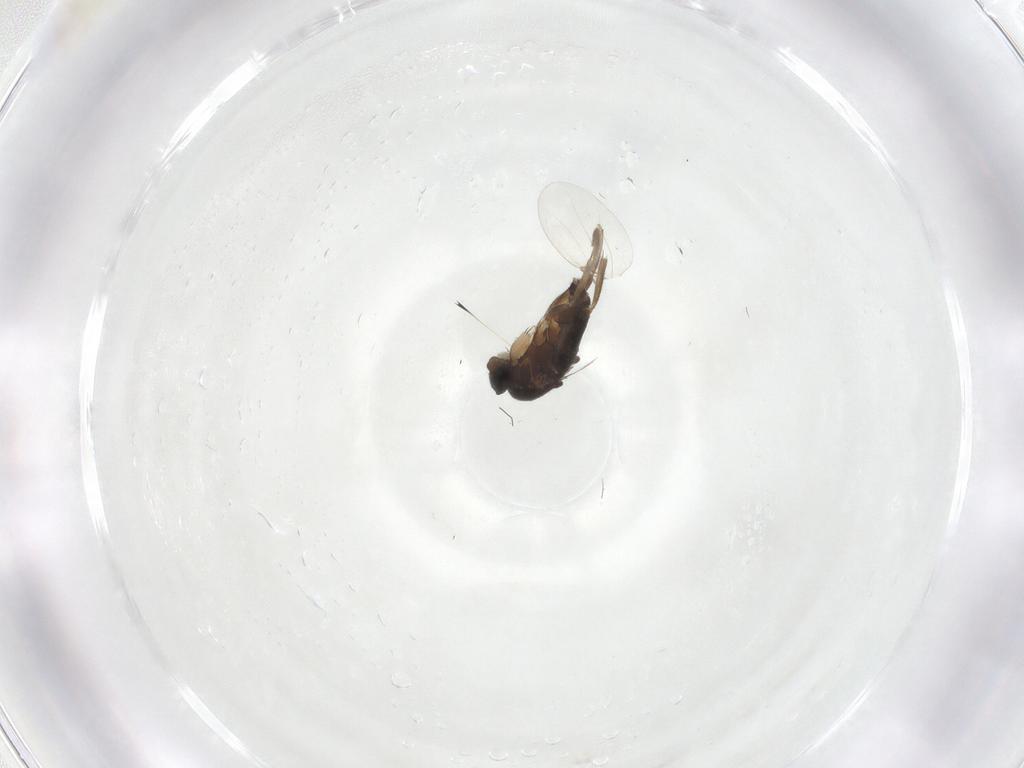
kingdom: Animalia
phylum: Arthropoda
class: Insecta
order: Diptera
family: Phoridae
